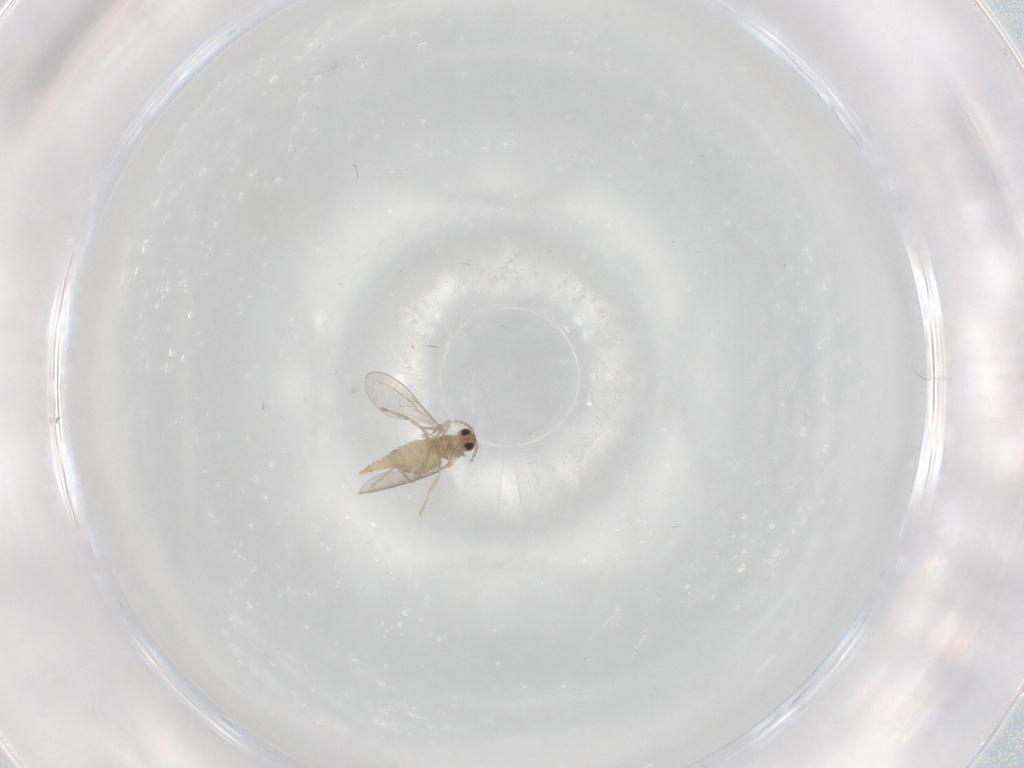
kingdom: Animalia
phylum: Arthropoda
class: Insecta
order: Diptera
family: Cecidomyiidae
